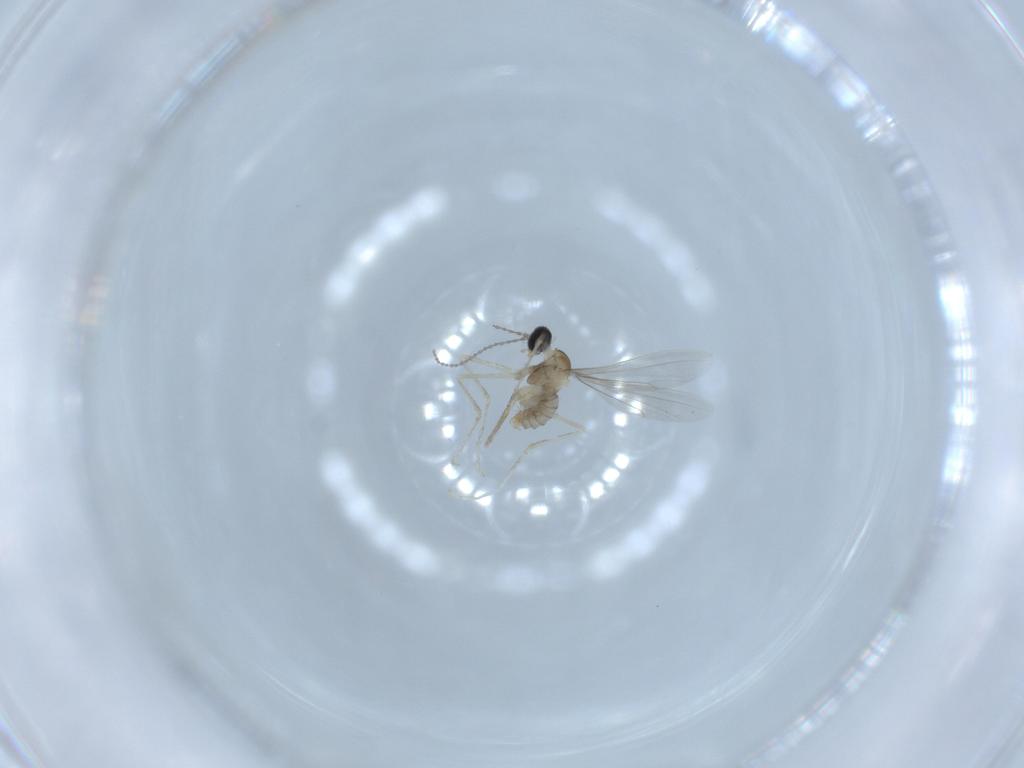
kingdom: Animalia
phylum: Arthropoda
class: Insecta
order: Diptera
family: Cecidomyiidae
